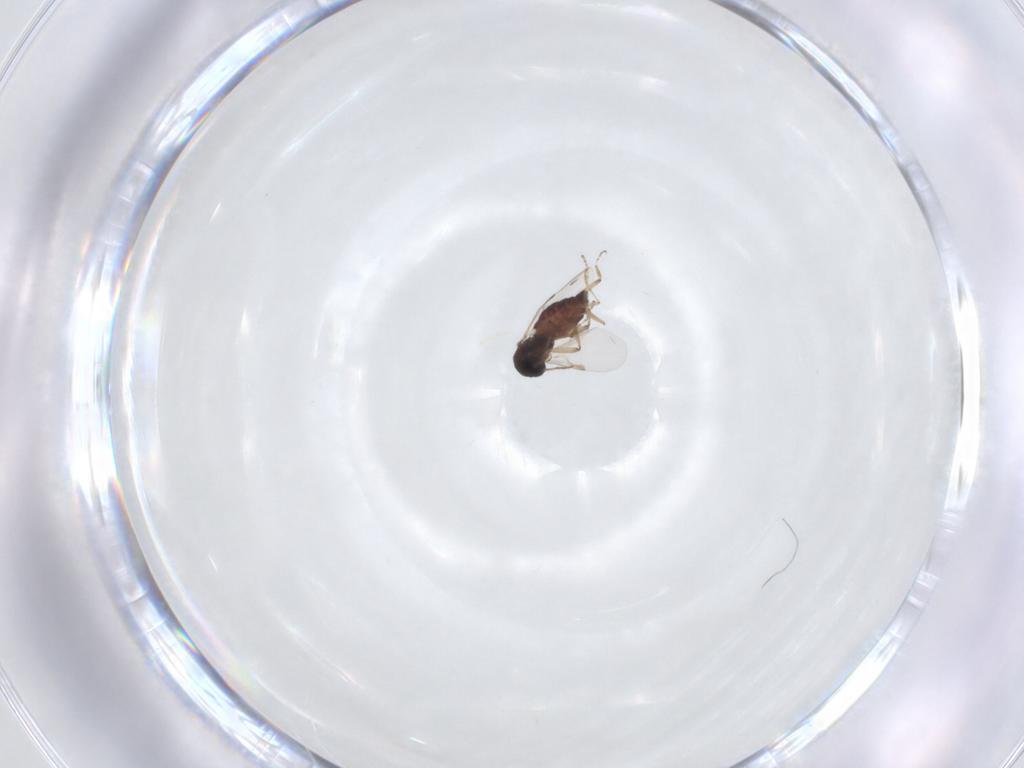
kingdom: Animalia
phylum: Arthropoda
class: Insecta
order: Diptera
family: Ceratopogonidae
